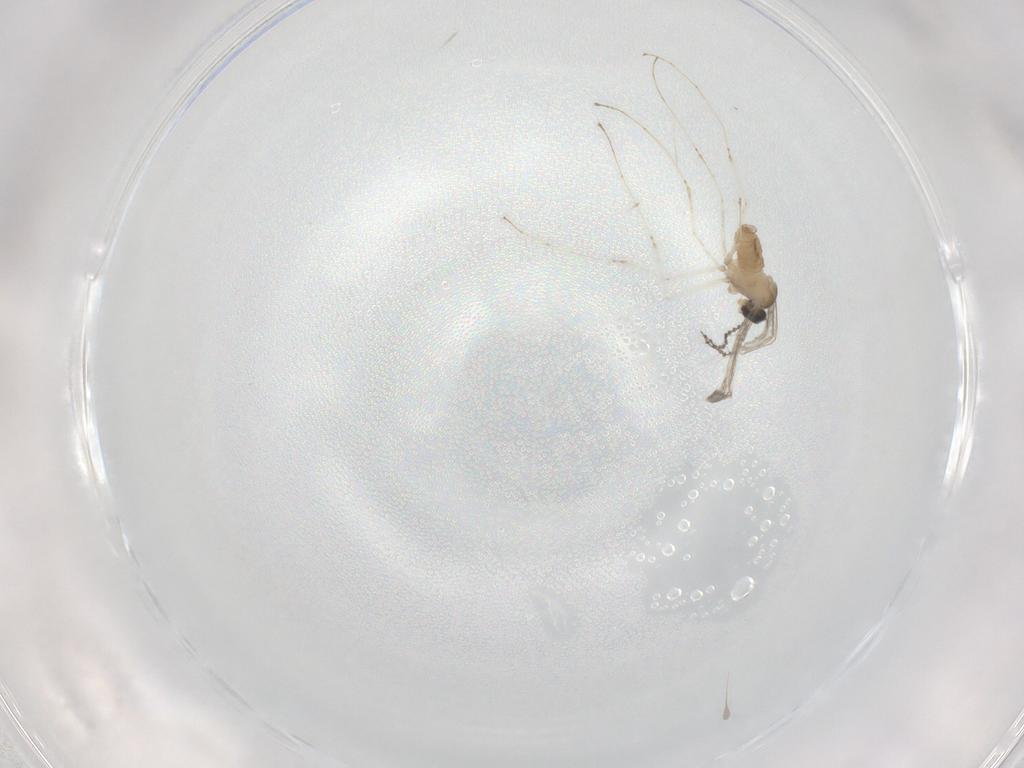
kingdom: Animalia
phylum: Arthropoda
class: Insecta
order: Diptera
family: Cecidomyiidae
